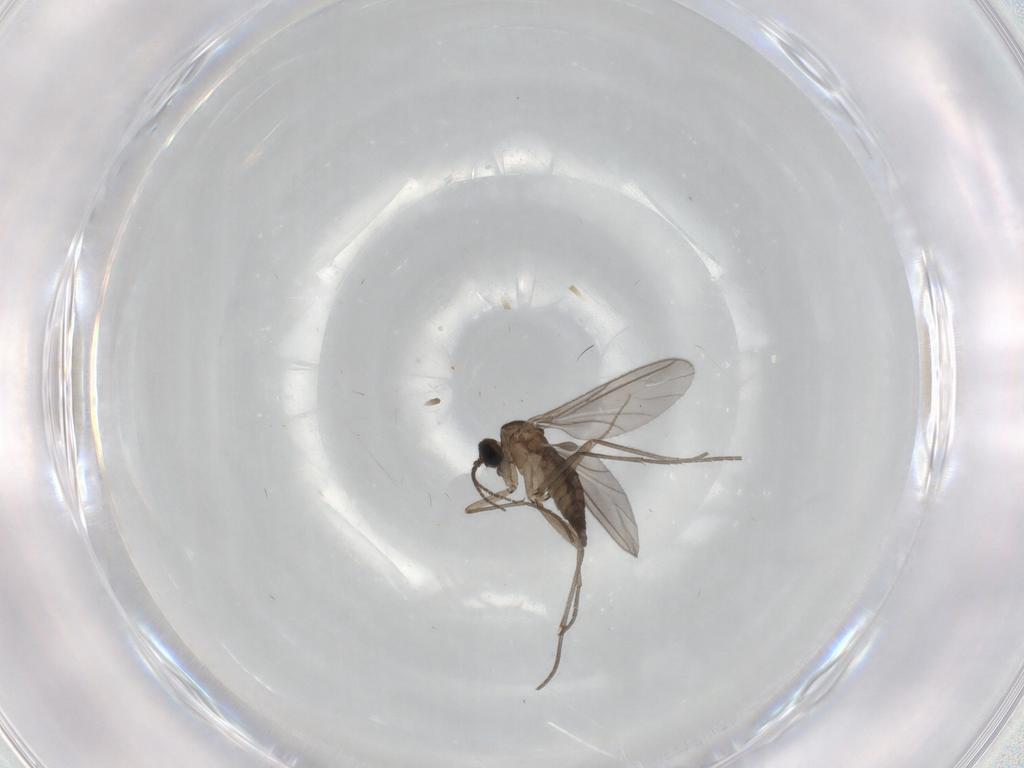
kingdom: Animalia
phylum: Arthropoda
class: Insecta
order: Diptera
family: Sciaridae
